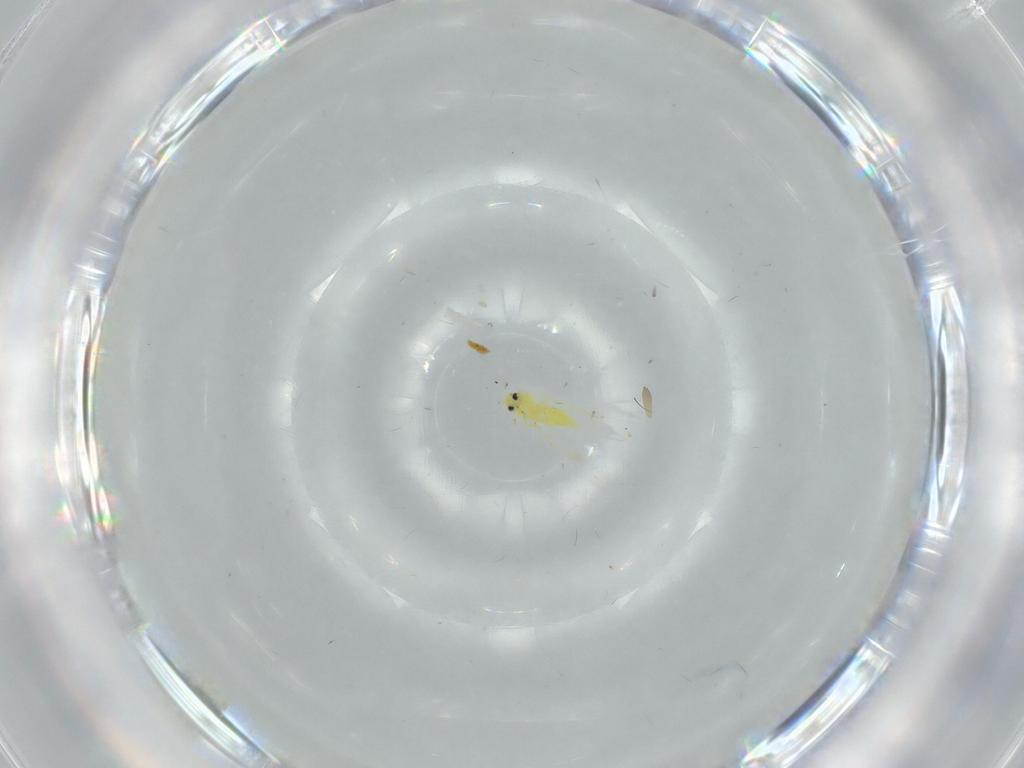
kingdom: Animalia
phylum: Arthropoda
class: Insecta
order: Hemiptera
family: Aleyrodidae
